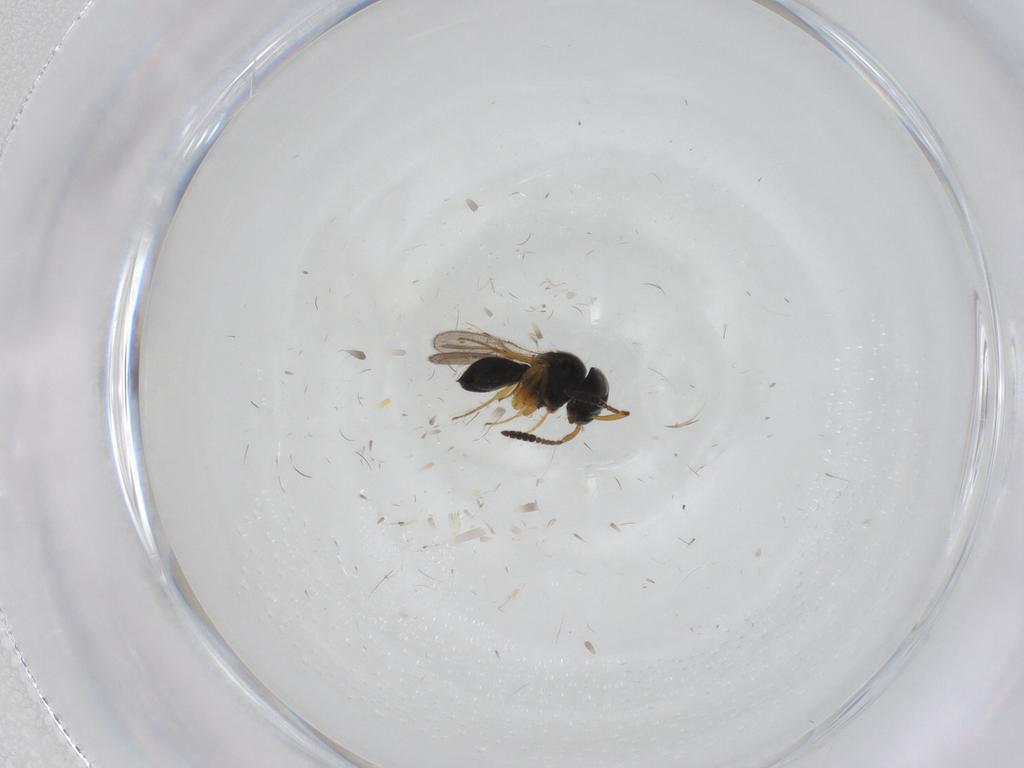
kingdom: Animalia
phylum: Arthropoda
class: Insecta
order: Hymenoptera
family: Scelionidae
